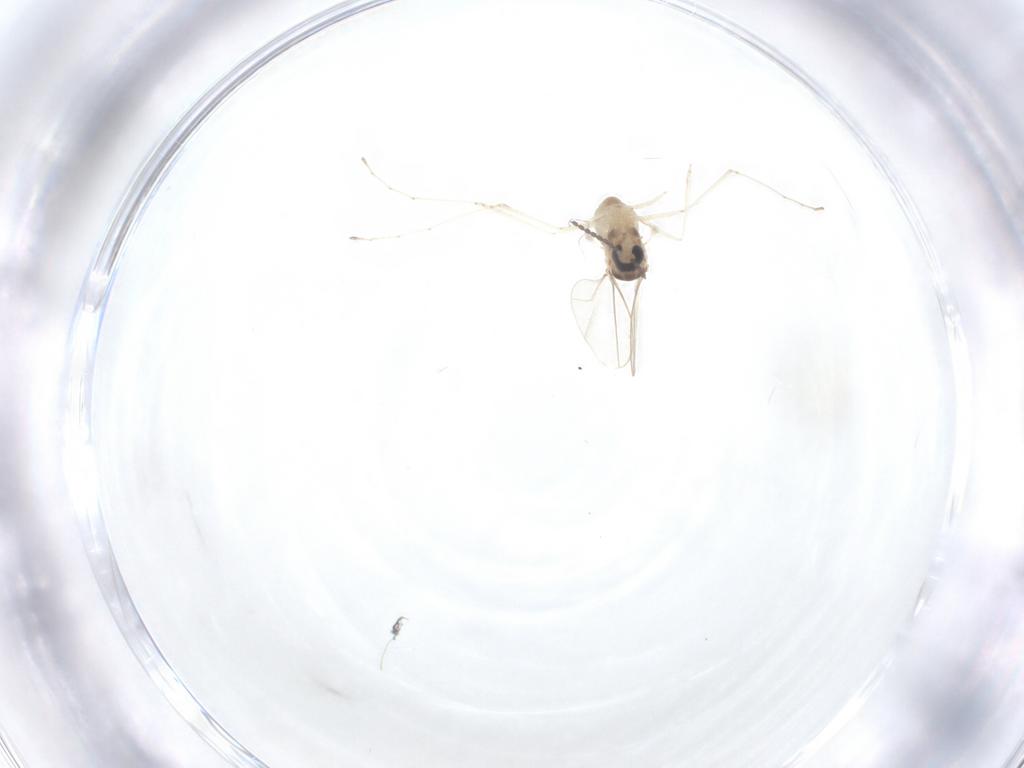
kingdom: Animalia
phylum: Arthropoda
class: Insecta
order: Diptera
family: Cecidomyiidae
